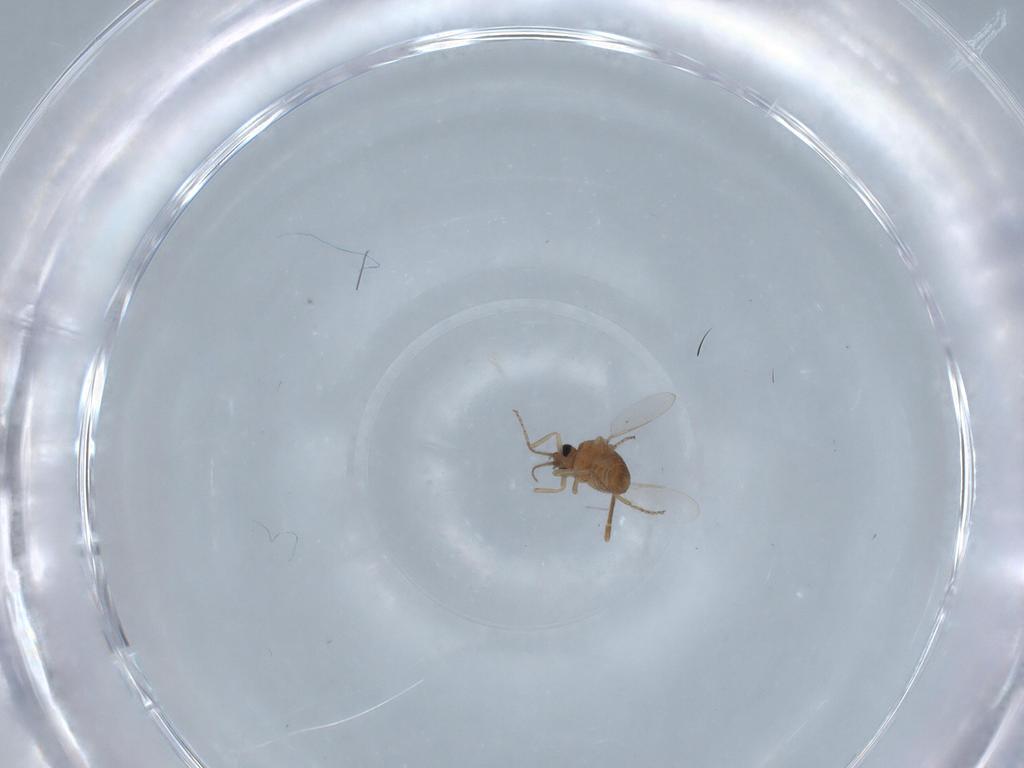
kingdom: Animalia
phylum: Arthropoda
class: Insecta
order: Diptera
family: Ceratopogonidae
